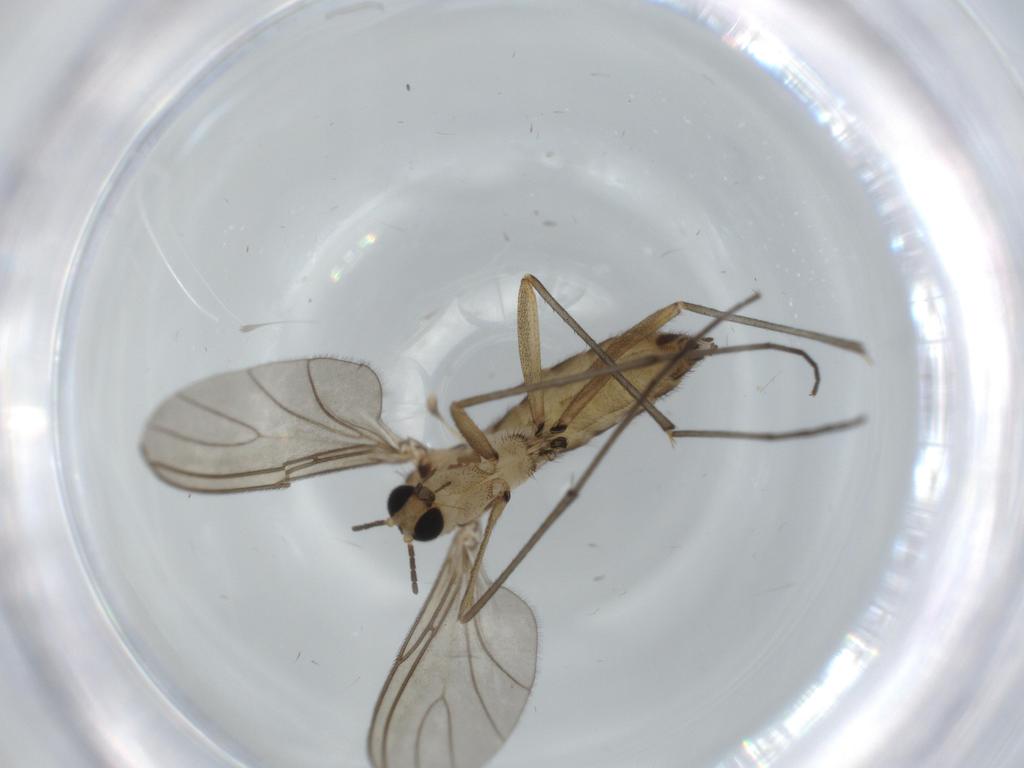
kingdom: Animalia
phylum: Arthropoda
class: Insecta
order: Diptera
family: Sciaridae
